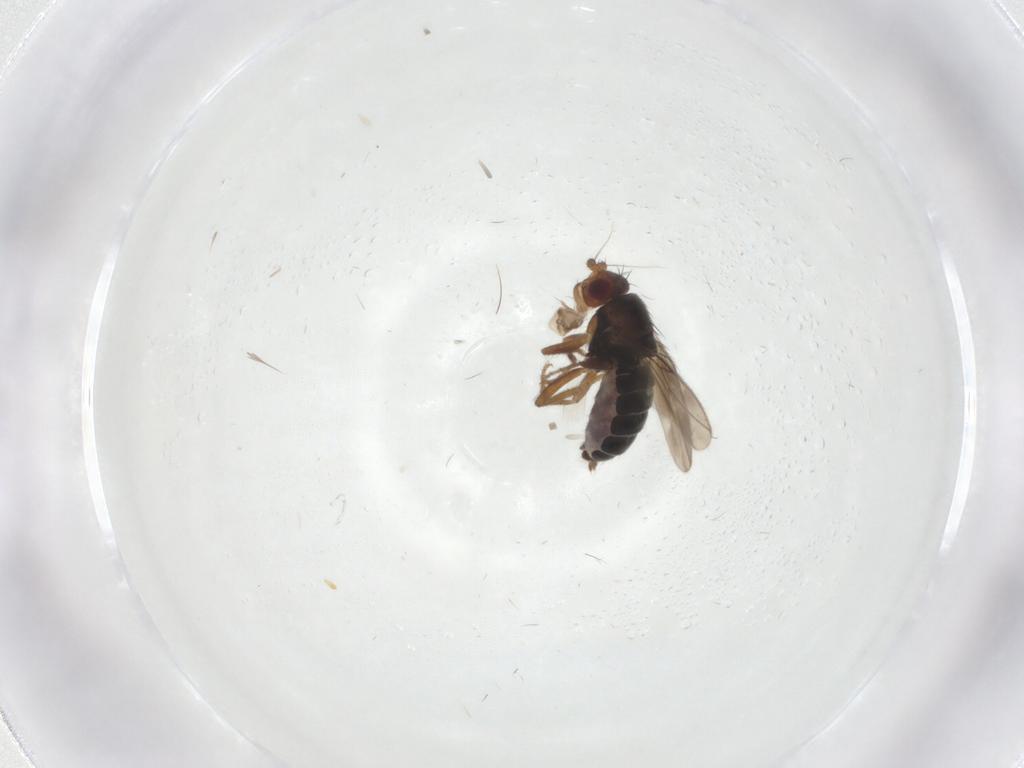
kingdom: Animalia
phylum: Arthropoda
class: Insecta
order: Diptera
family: Sphaeroceridae
